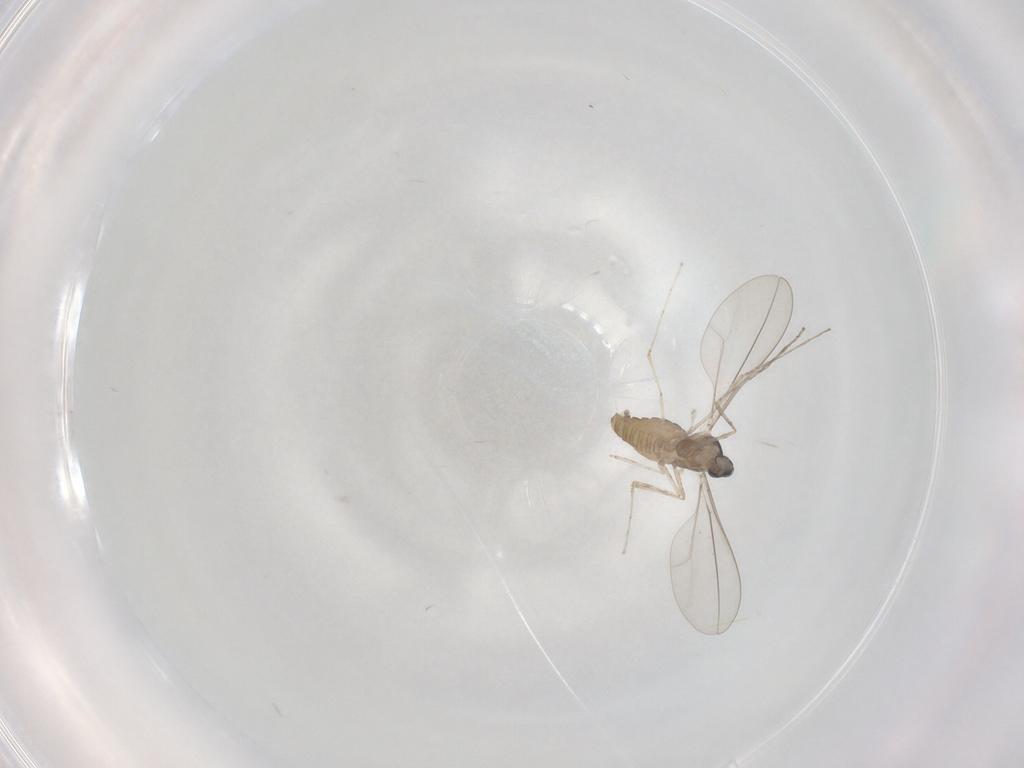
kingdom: Animalia
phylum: Arthropoda
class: Insecta
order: Diptera
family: Cecidomyiidae
